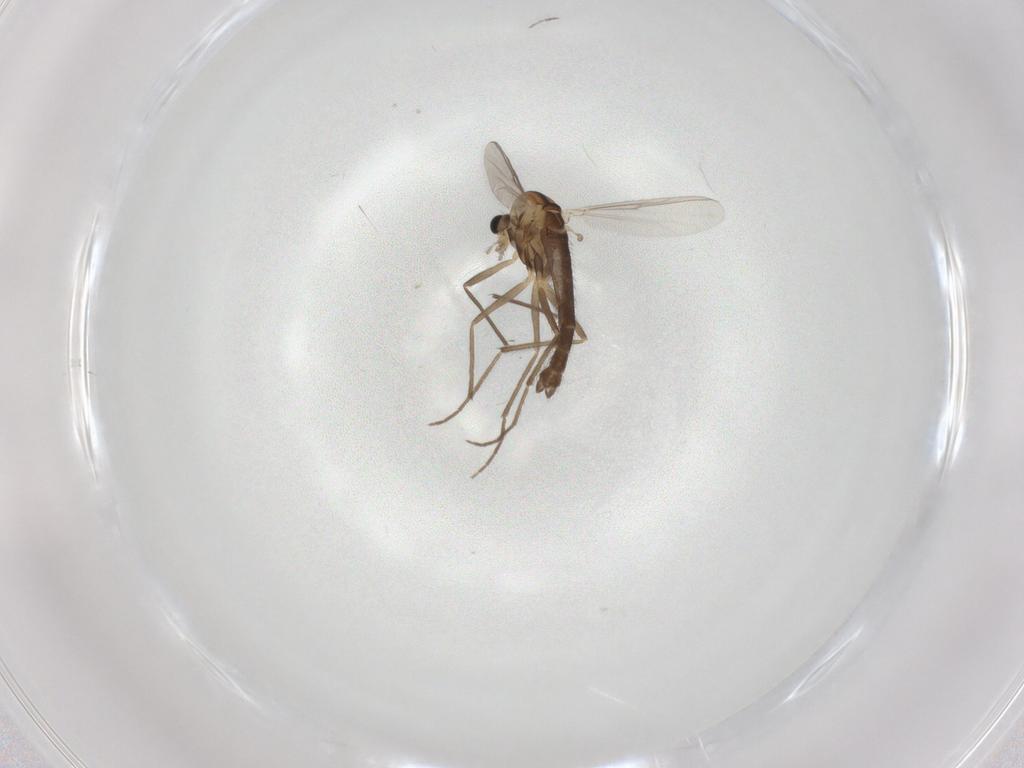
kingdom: Animalia
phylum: Arthropoda
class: Insecta
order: Diptera
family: Chironomidae
